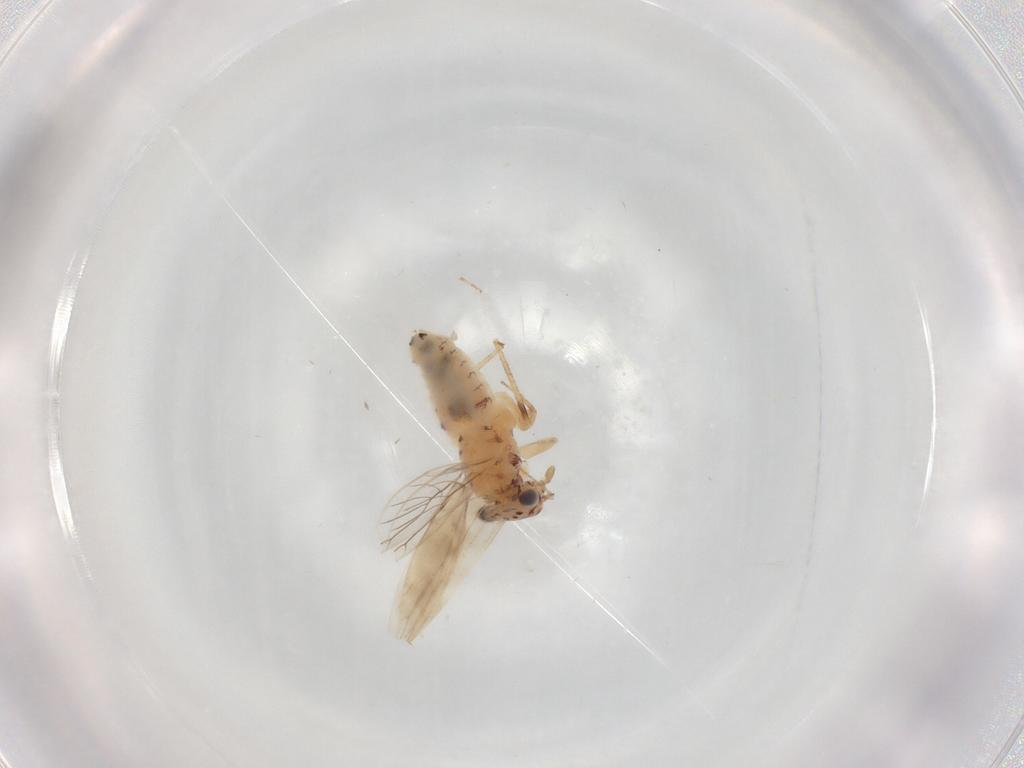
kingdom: Animalia
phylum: Arthropoda
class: Insecta
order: Psocodea
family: Lepidopsocidae
